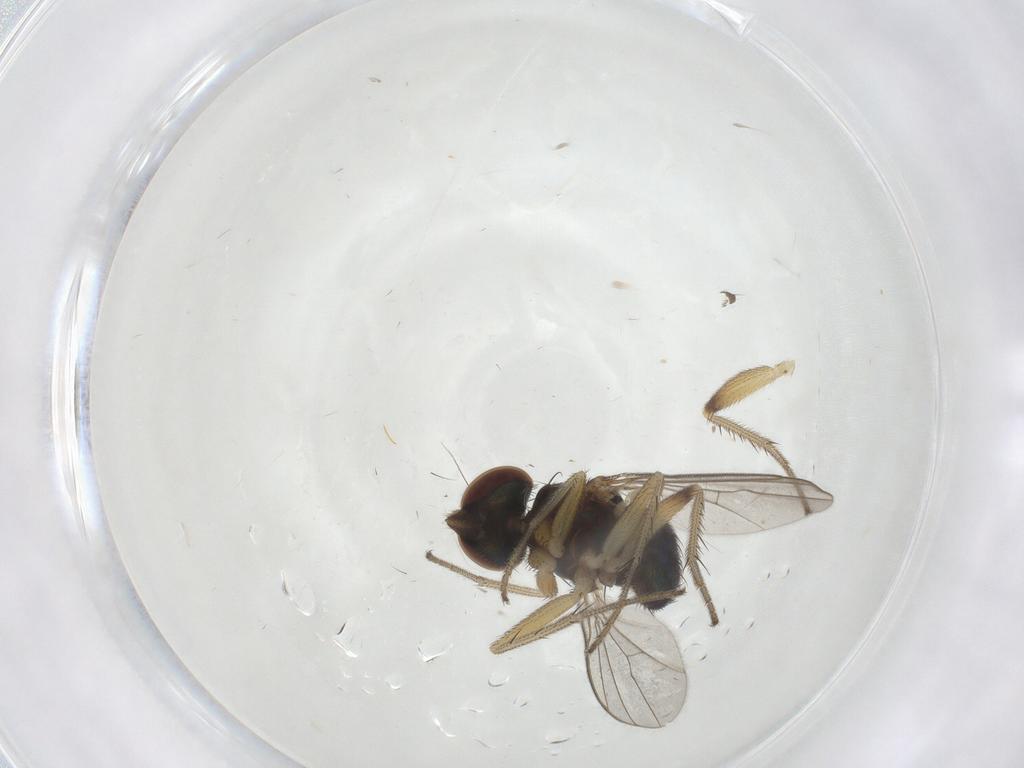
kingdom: Animalia
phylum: Arthropoda
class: Insecta
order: Diptera
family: Dolichopodidae
